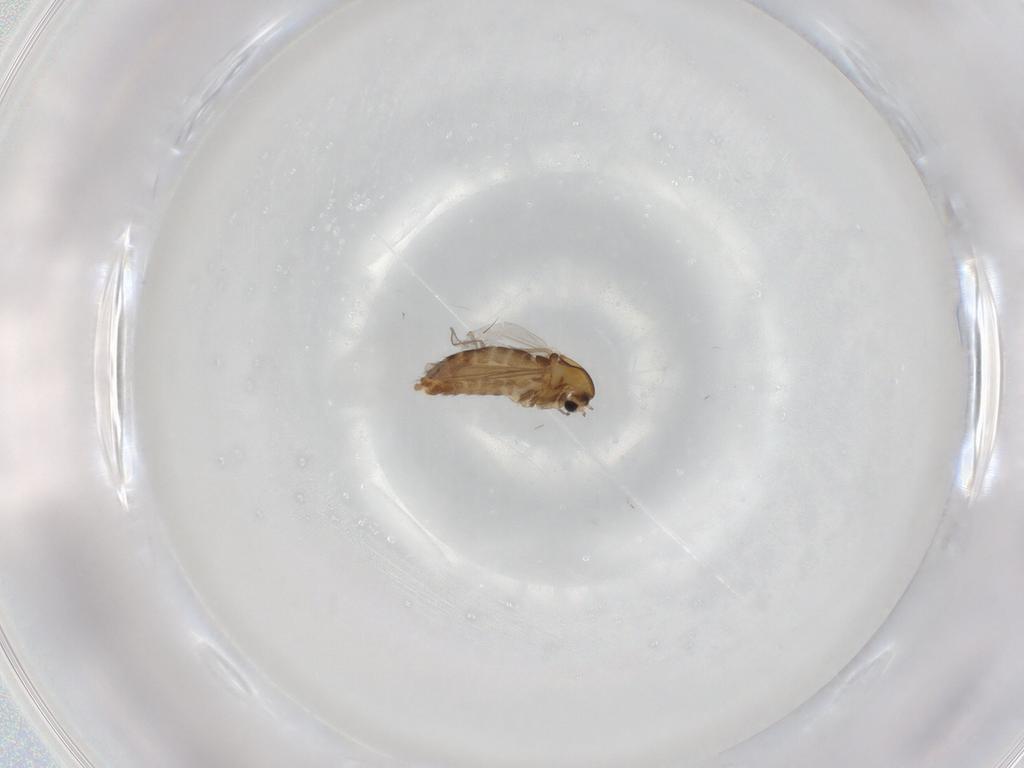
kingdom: Animalia
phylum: Arthropoda
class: Insecta
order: Diptera
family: Chironomidae
